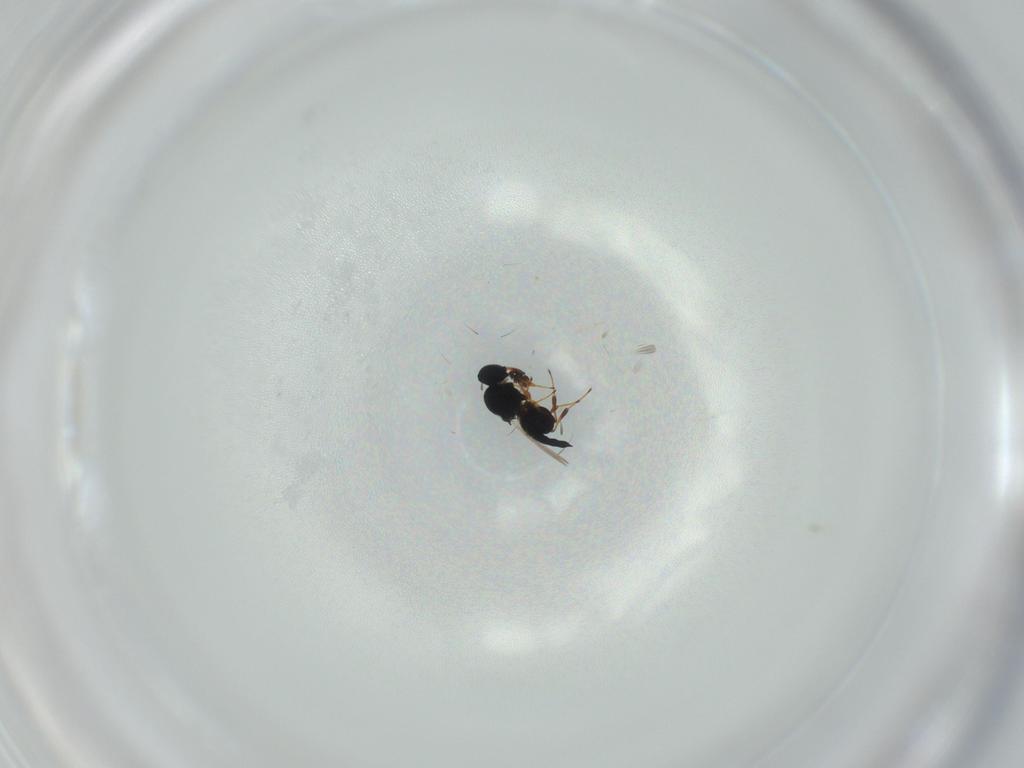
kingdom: Animalia
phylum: Arthropoda
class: Insecta
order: Hymenoptera
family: Platygastridae
